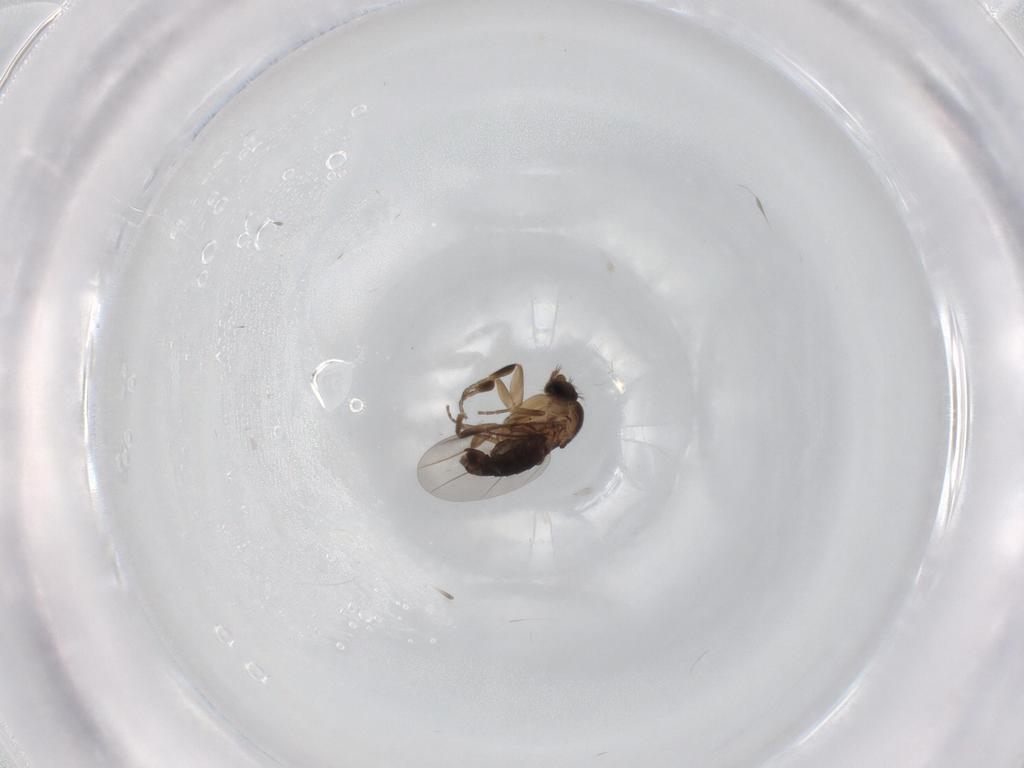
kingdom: Animalia
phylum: Arthropoda
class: Insecta
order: Diptera
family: Phoridae
